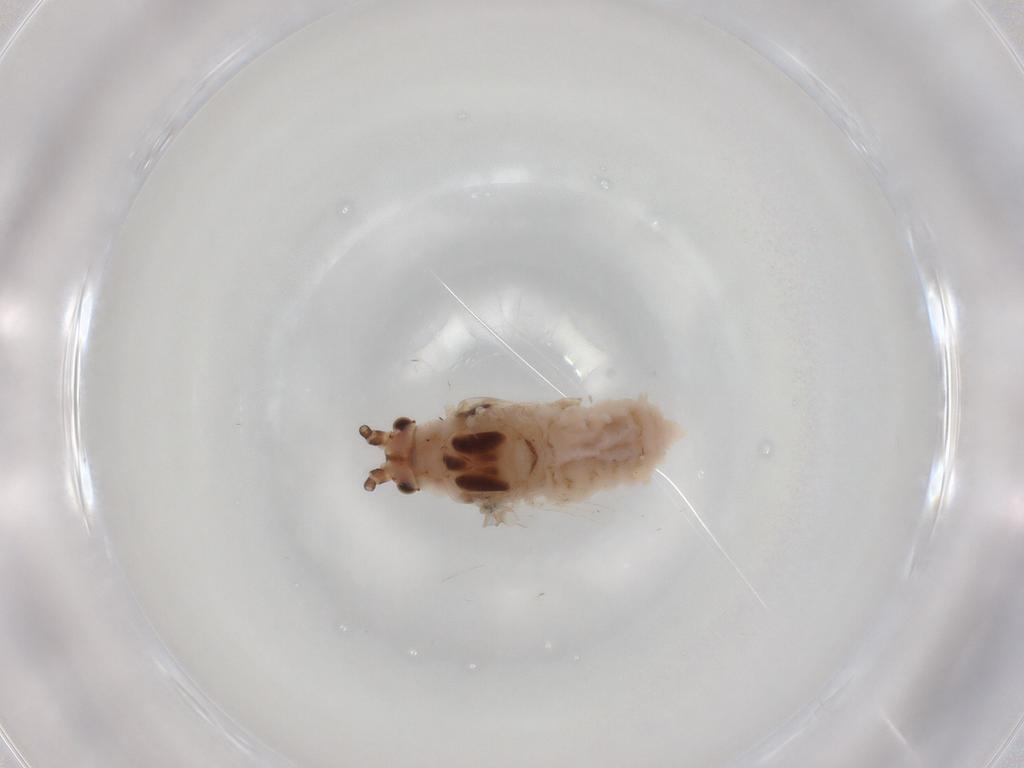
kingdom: Animalia
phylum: Arthropoda
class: Insecta
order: Hemiptera
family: Aphididae
